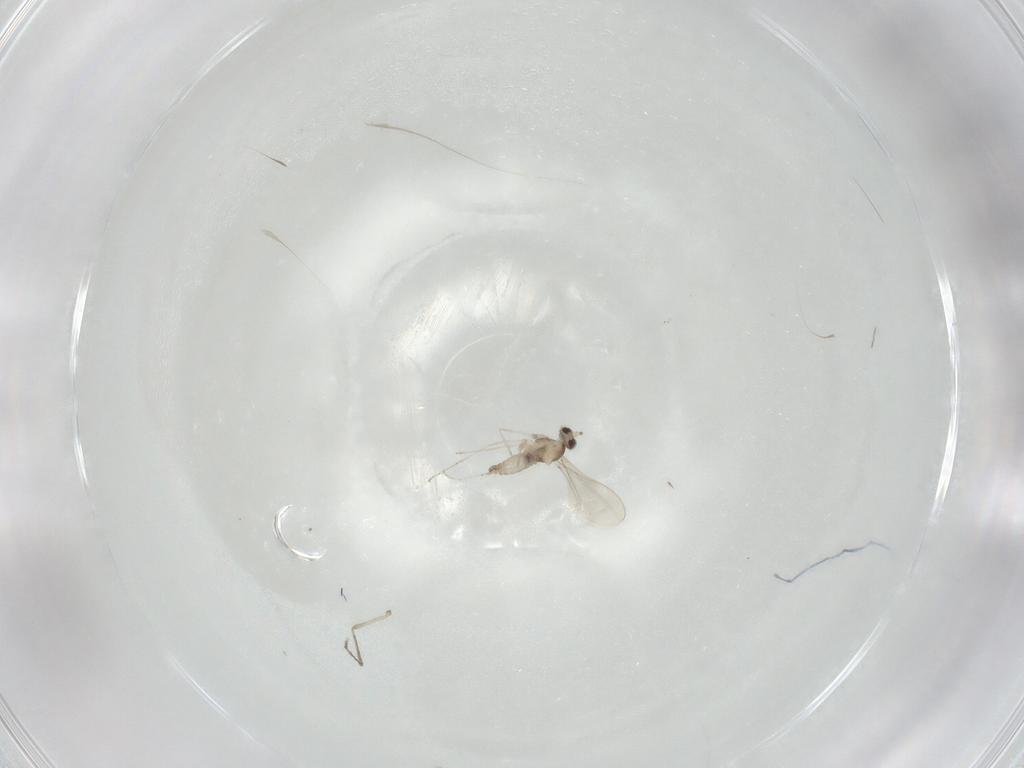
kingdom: Animalia
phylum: Arthropoda
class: Insecta
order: Diptera
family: Cecidomyiidae
